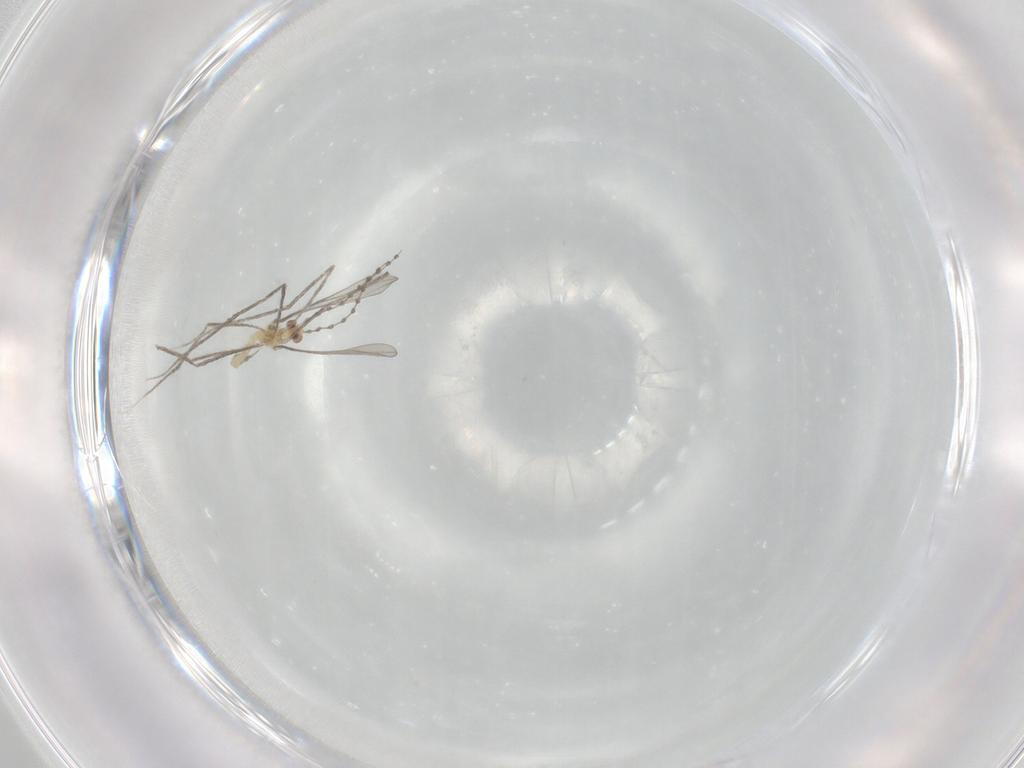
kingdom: Animalia
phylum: Arthropoda
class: Insecta
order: Diptera
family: Cecidomyiidae
